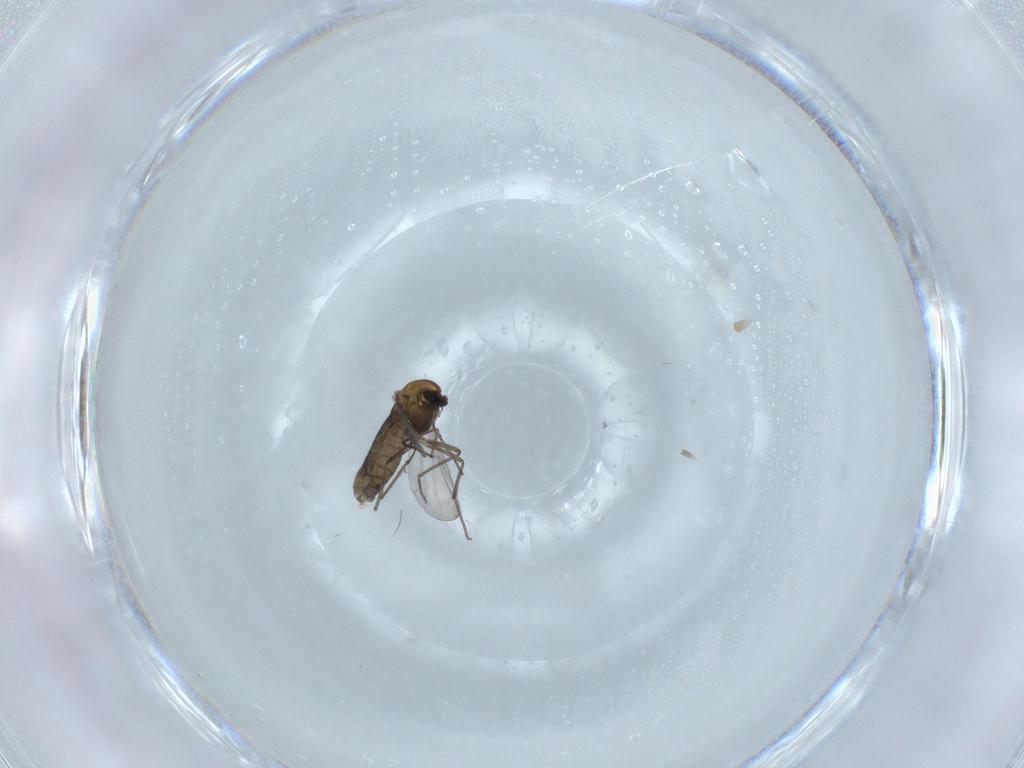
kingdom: Animalia
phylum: Arthropoda
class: Insecta
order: Diptera
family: Chironomidae
